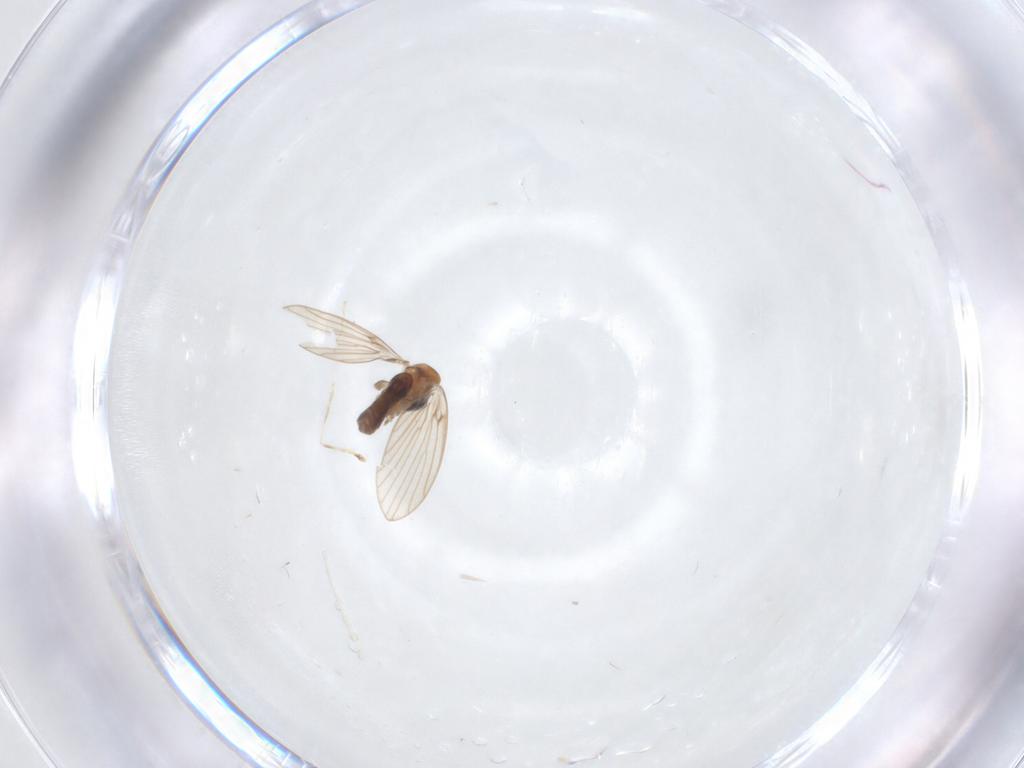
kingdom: Animalia
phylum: Arthropoda
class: Insecta
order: Diptera
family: Cecidomyiidae
